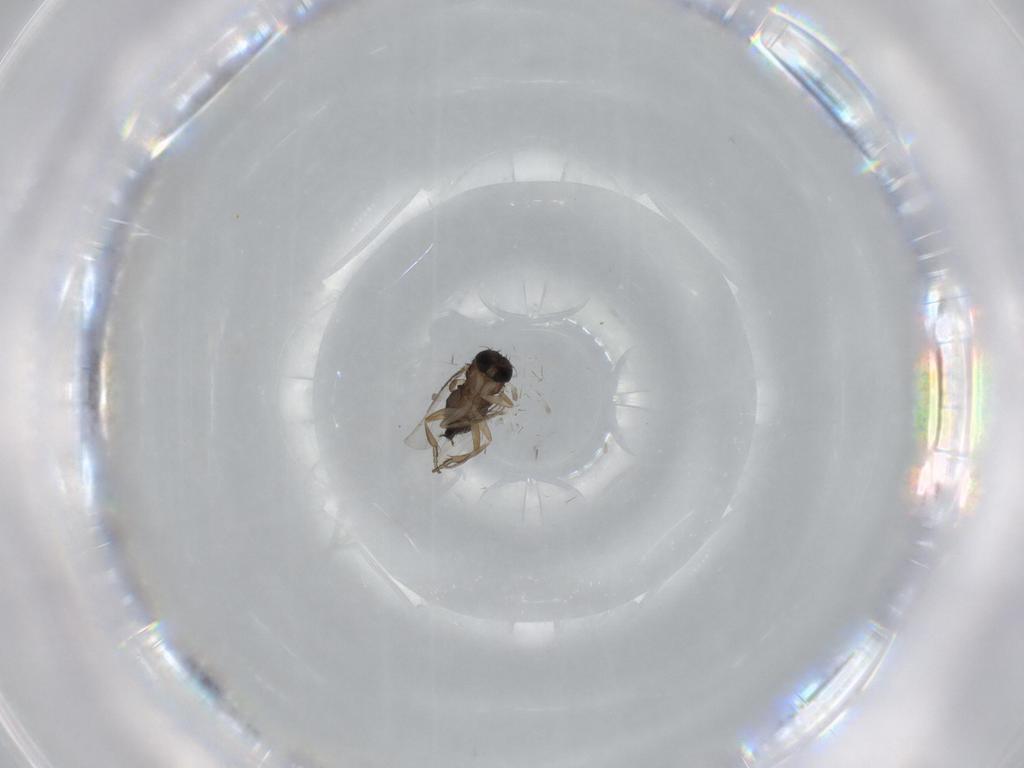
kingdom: Animalia
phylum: Arthropoda
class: Insecta
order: Diptera
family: Phoridae
